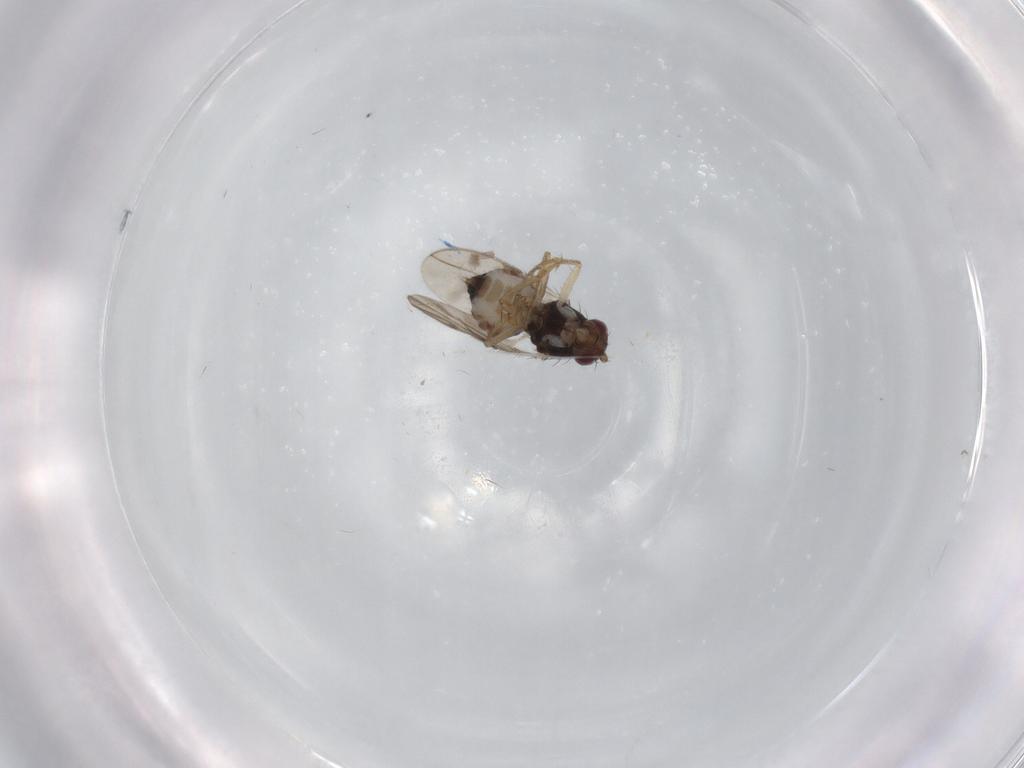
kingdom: Animalia
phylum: Arthropoda
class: Insecta
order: Diptera
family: Sphaeroceridae
